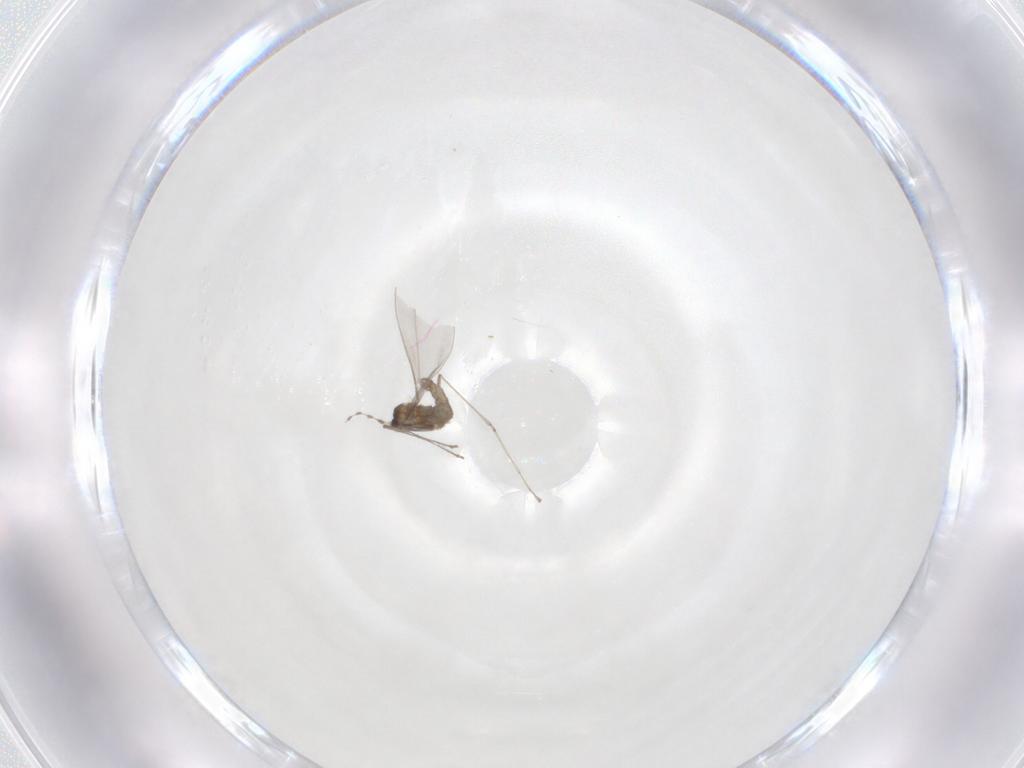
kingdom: Animalia
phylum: Arthropoda
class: Insecta
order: Diptera
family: Cecidomyiidae
